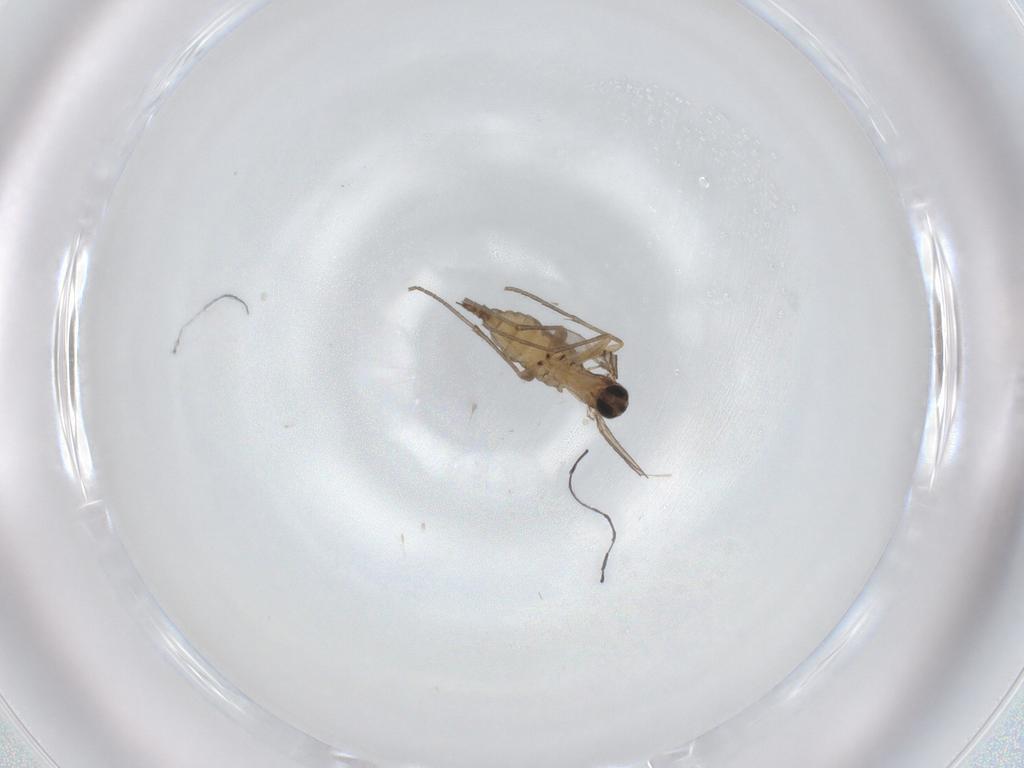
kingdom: Animalia
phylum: Arthropoda
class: Insecta
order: Diptera
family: Sciaridae
